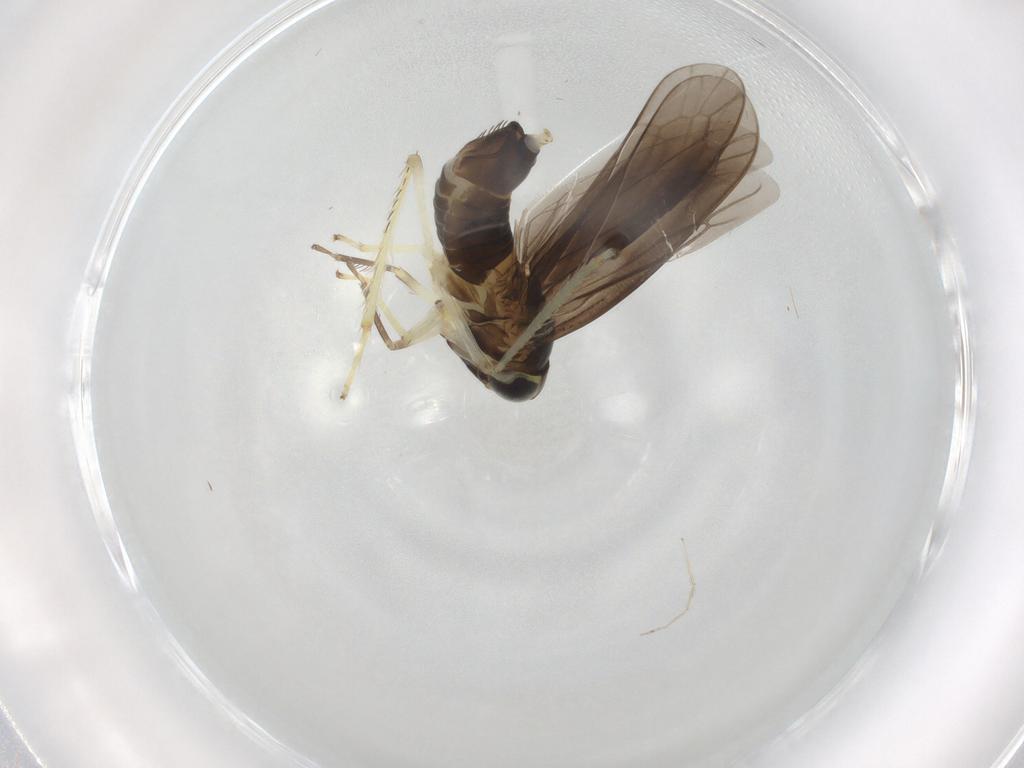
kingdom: Animalia
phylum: Arthropoda
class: Insecta
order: Hemiptera
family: Cicadellidae
